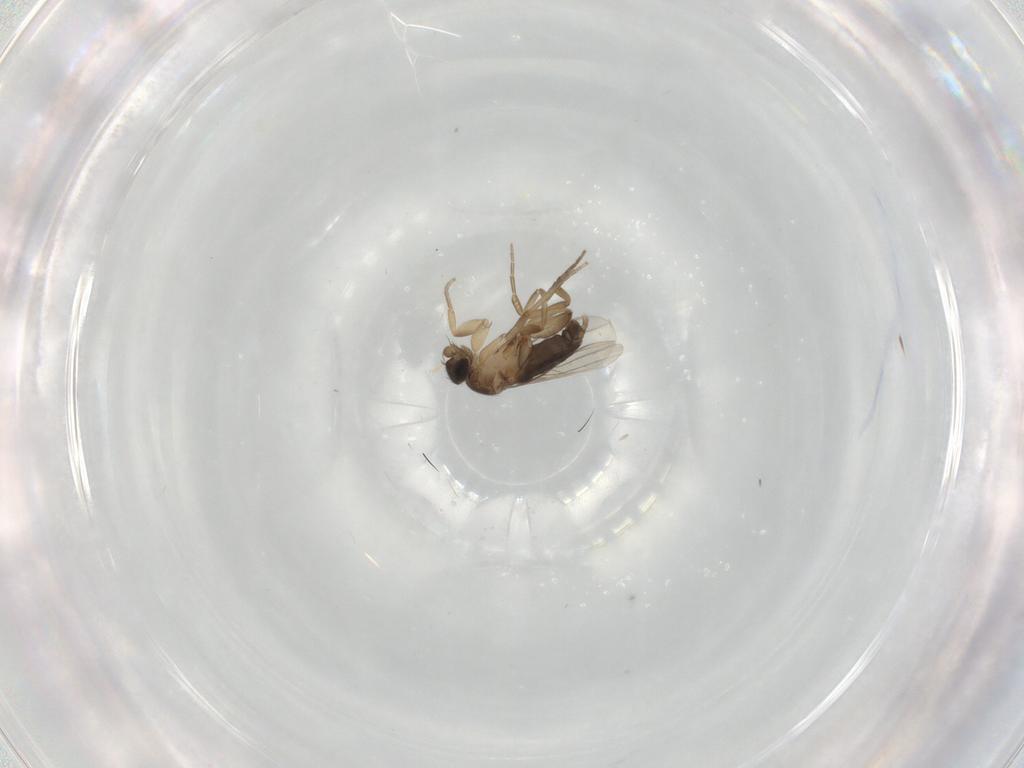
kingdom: Animalia
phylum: Arthropoda
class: Insecta
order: Diptera
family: Phoridae
